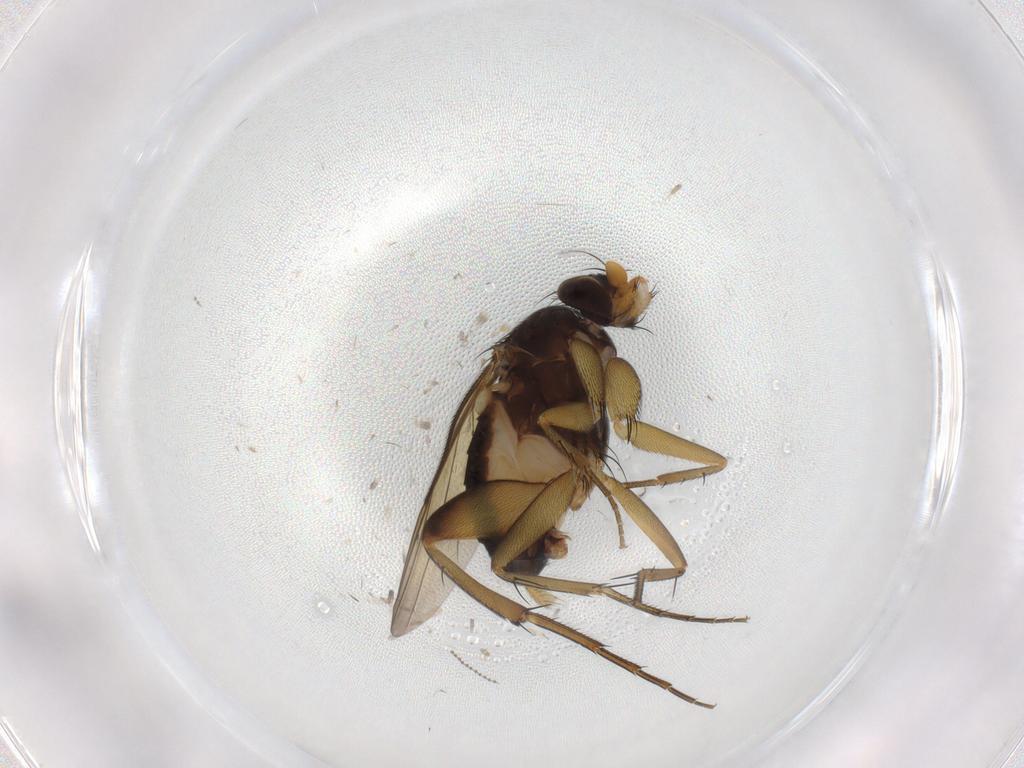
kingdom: Animalia
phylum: Arthropoda
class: Insecta
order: Diptera
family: Phoridae
